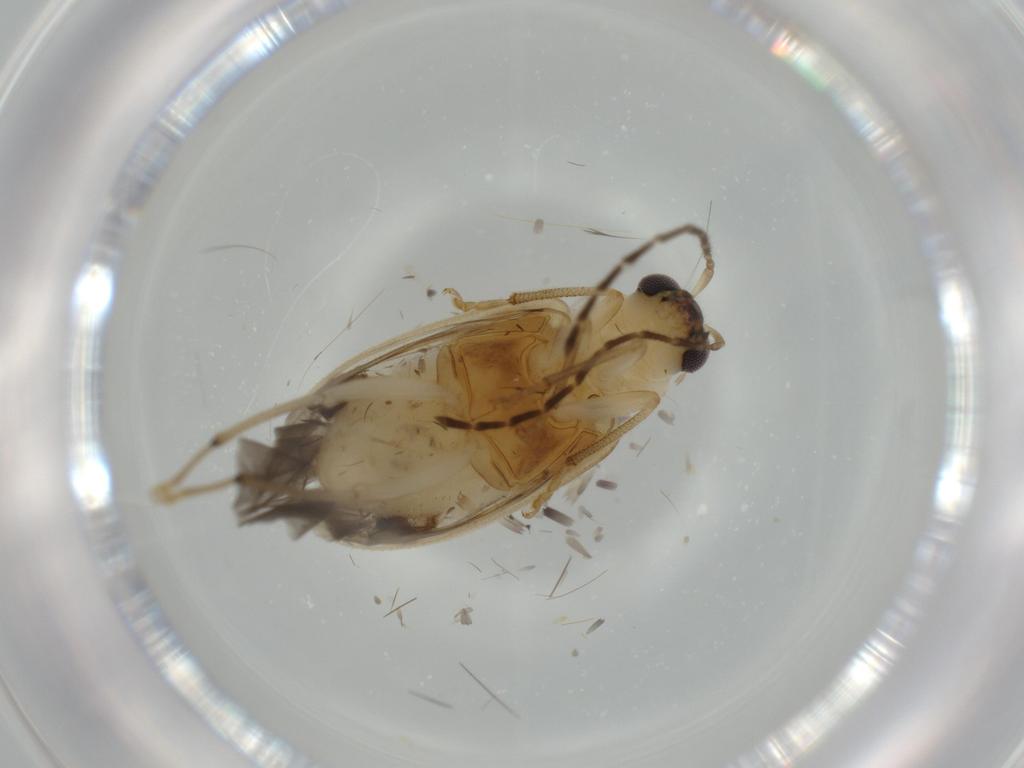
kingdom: Animalia
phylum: Arthropoda
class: Insecta
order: Coleoptera
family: Chrysomelidae
